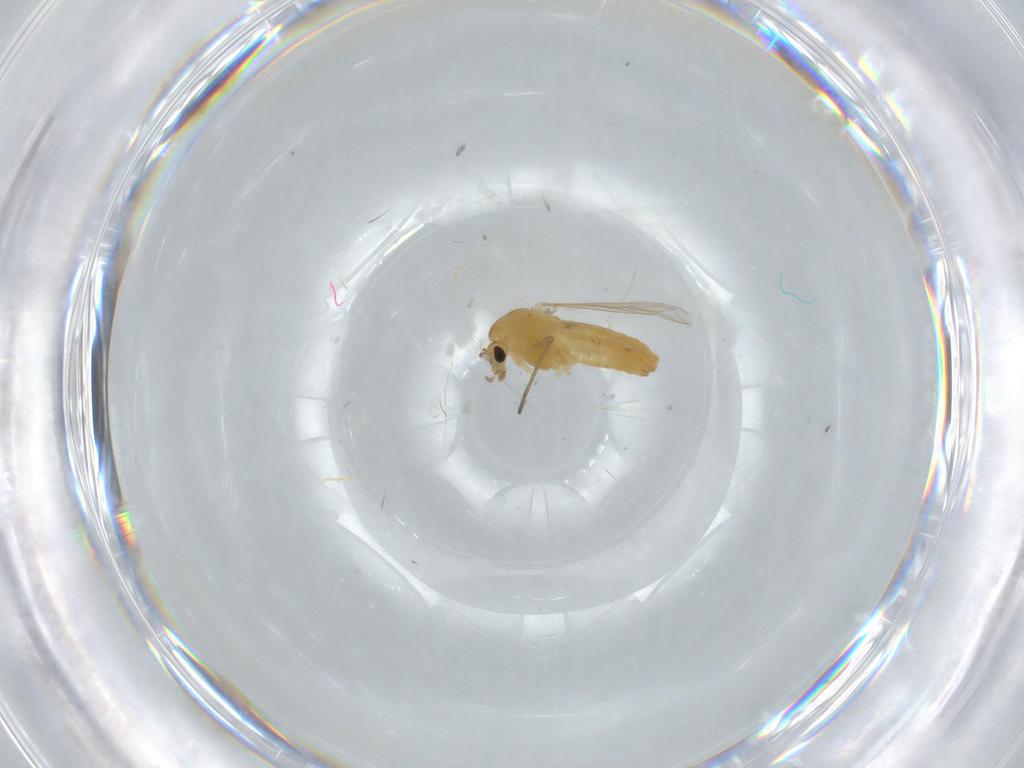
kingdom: Animalia
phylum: Arthropoda
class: Insecta
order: Diptera
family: Chironomidae
